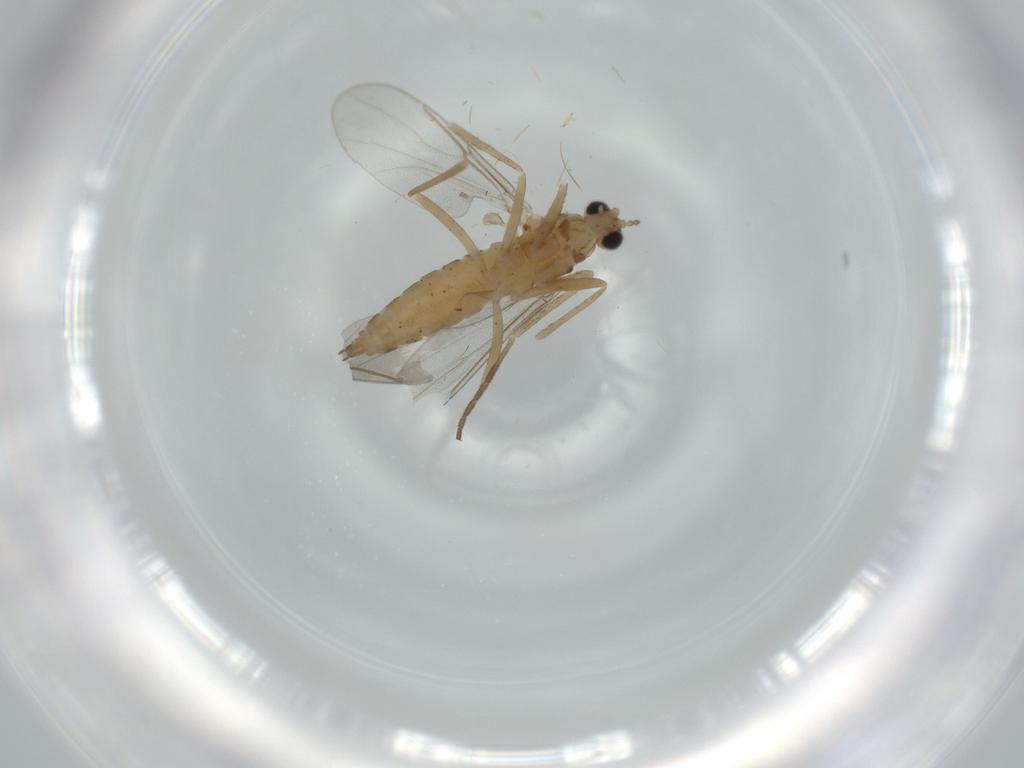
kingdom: Animalia
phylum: Arthropoda
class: Insecta
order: Diptera
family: Cecidomyiidae
